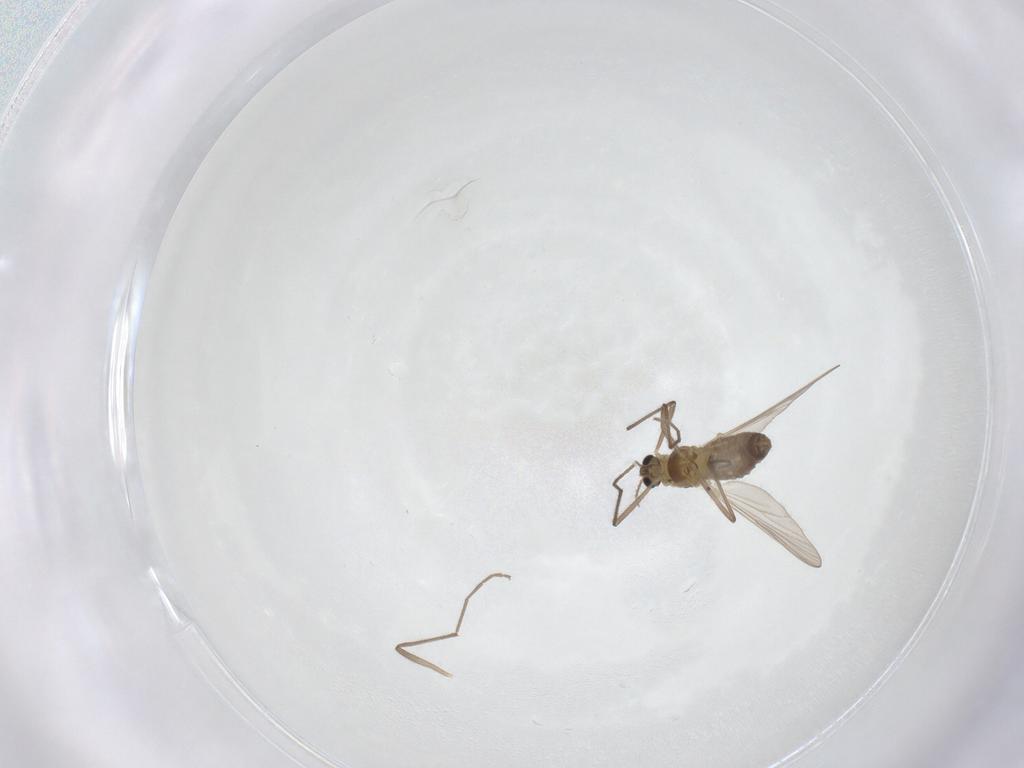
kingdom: Animalia
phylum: Arthropoda
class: Insecta
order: Diptera
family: Chironomidae
